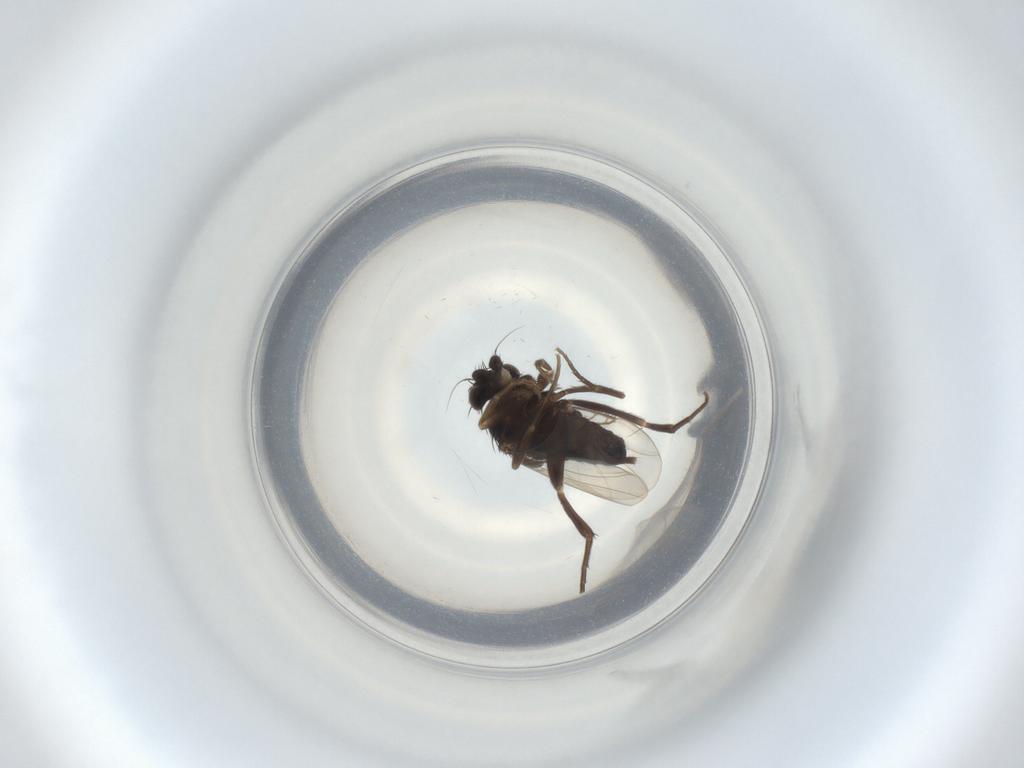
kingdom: Animalia
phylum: Arthropoda
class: Insecta
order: Diptera
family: Phoridae
